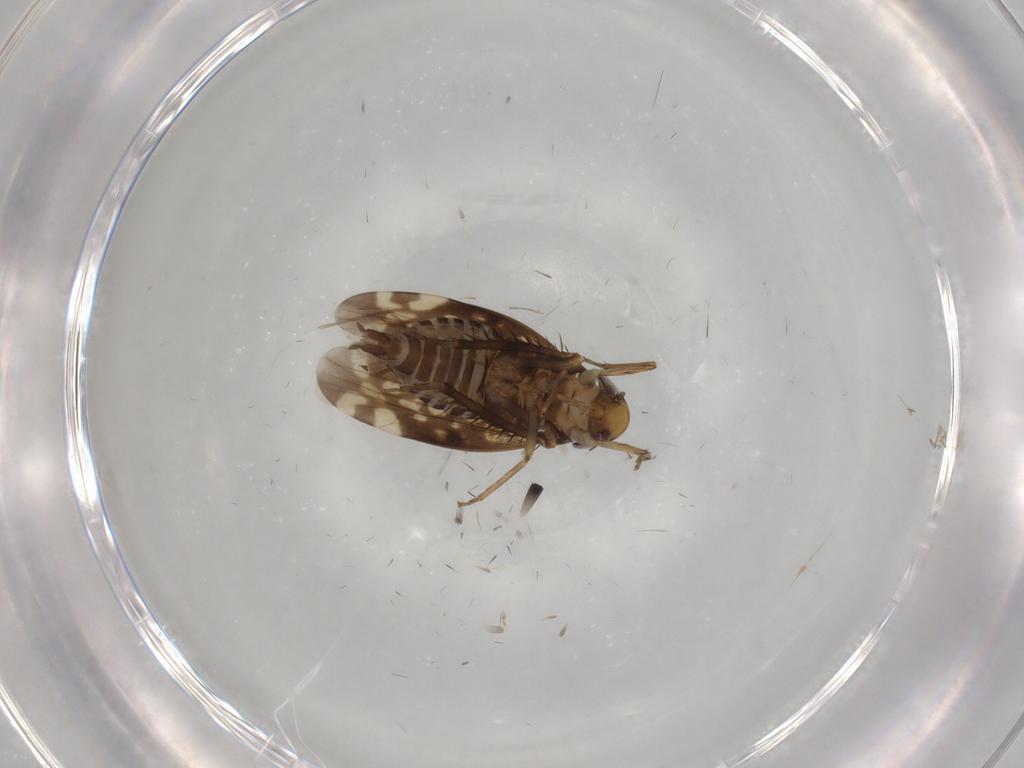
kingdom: Animalia
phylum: Arthropoda
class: Insecta
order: Hemiptera
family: Cicadellidae
